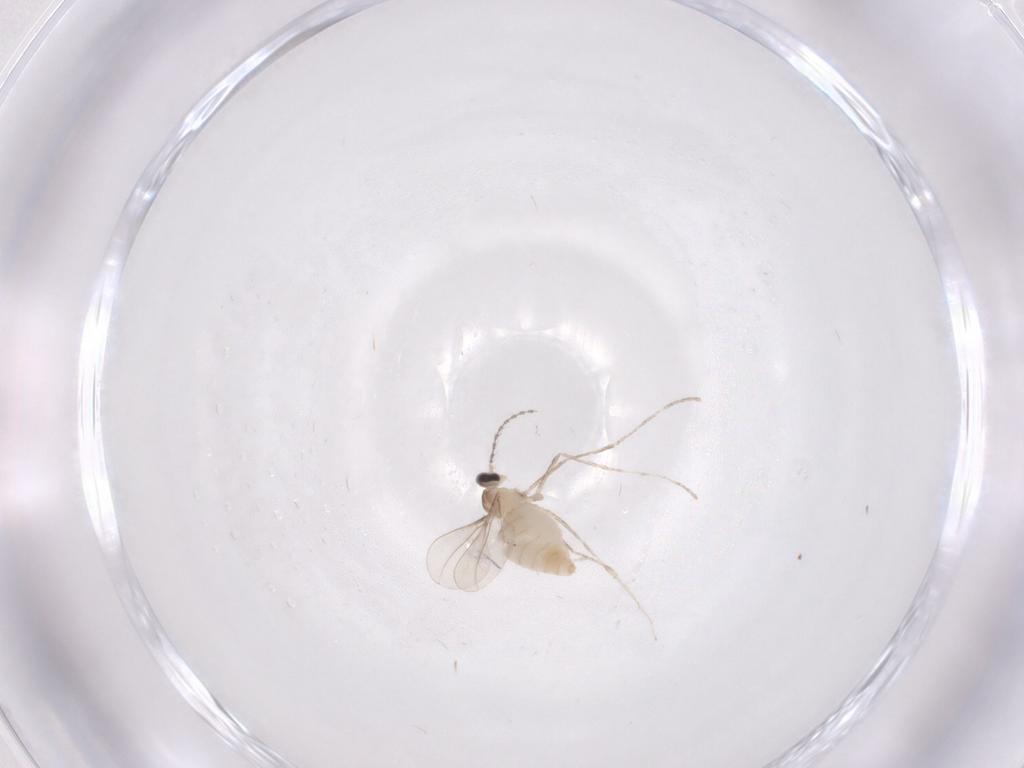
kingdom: Animalia
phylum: Arthropoda
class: Insecta
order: Diptera
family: Cecidomyiidae
